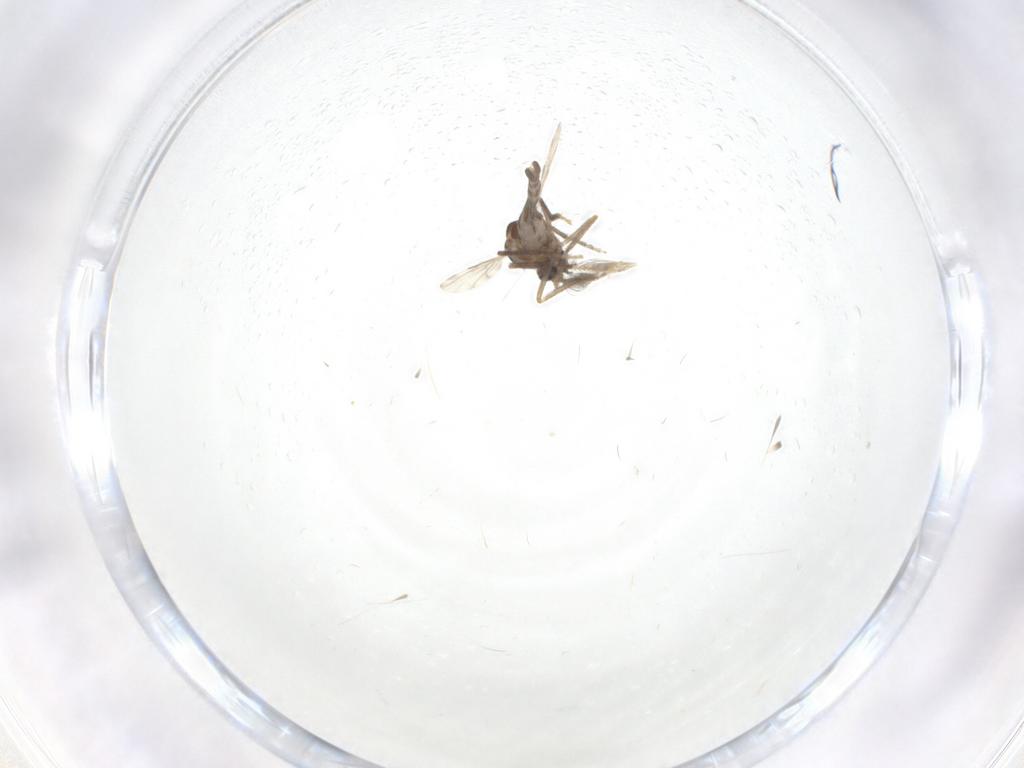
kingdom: Animalia
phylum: Arthropoda
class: Insecta
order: Diptera
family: Ceratopogonidae
